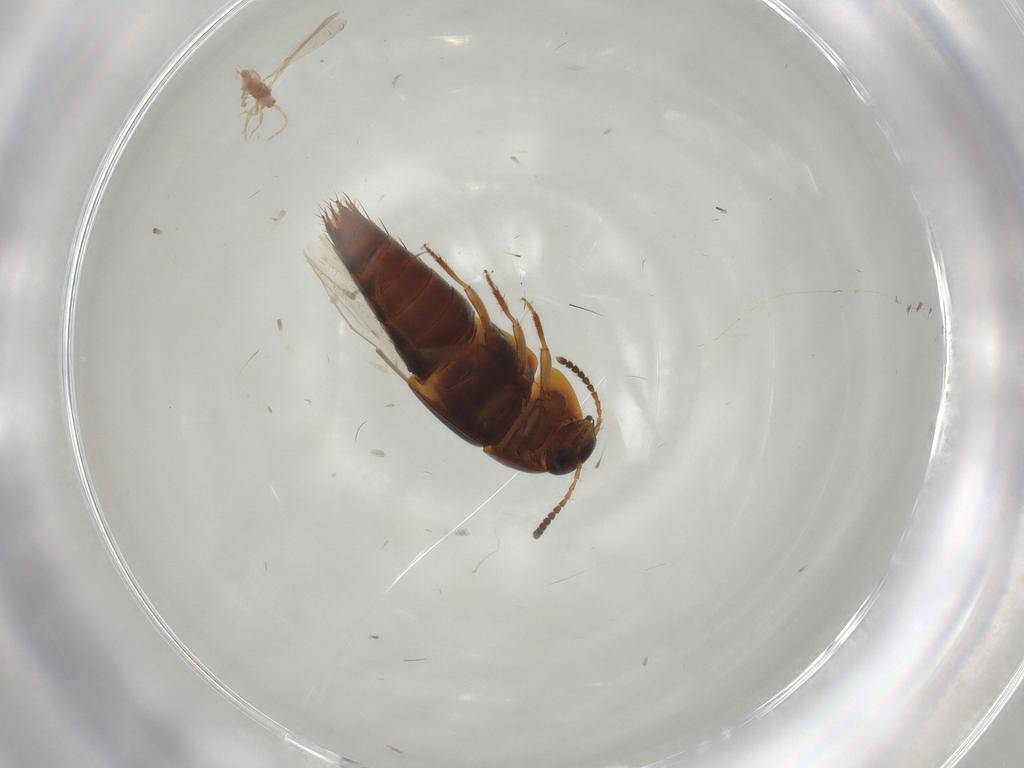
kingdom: Animalia
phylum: Arthropoda
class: Insecta
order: Coleoptera
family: Staphylinidae
